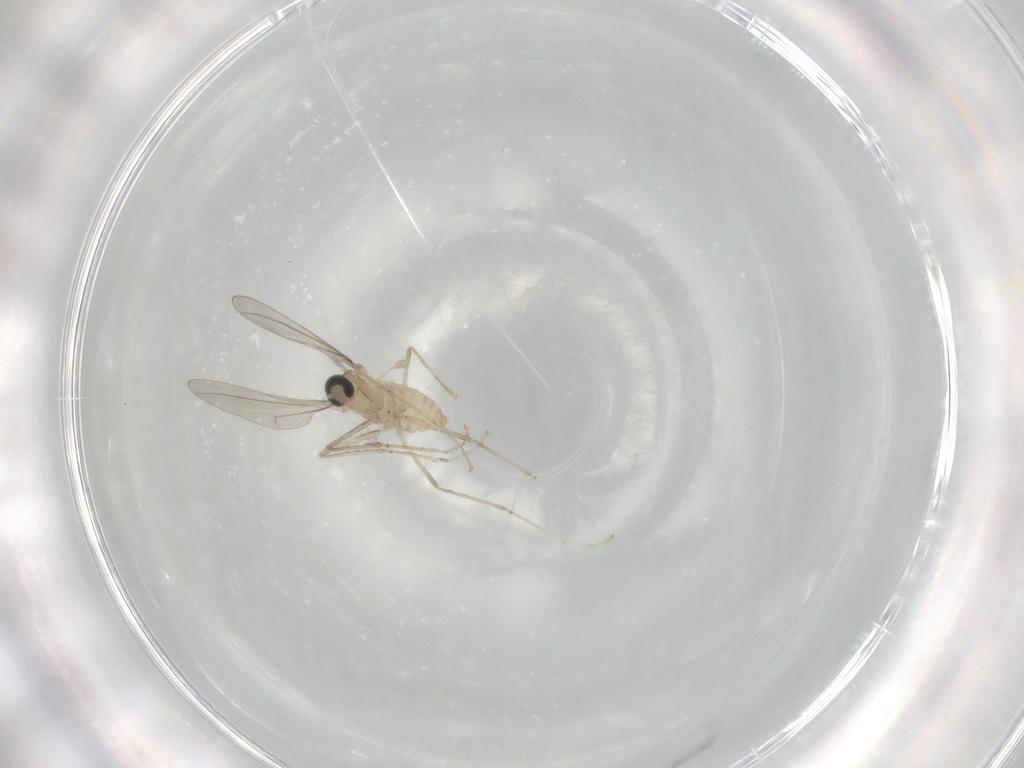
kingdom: Animalia
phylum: Arthropoda
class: Insecta
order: Diptera
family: Cecidomyiidae
